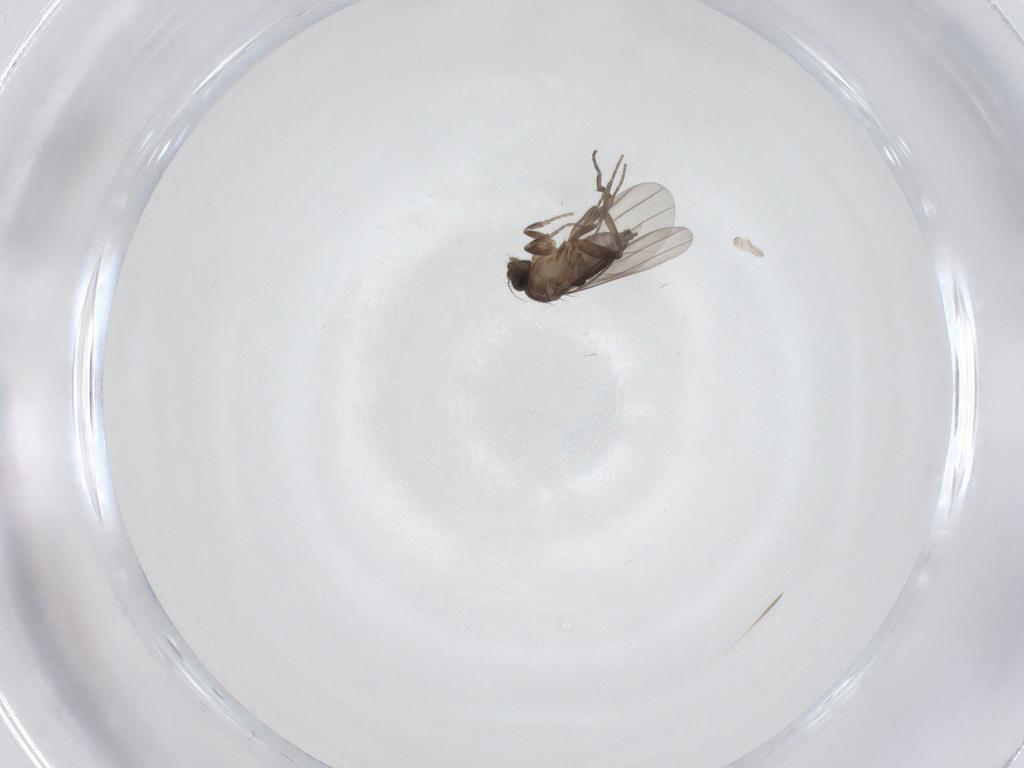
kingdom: Animalia
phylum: Arthropoda
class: Insecta
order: Diptera
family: Phoridae
